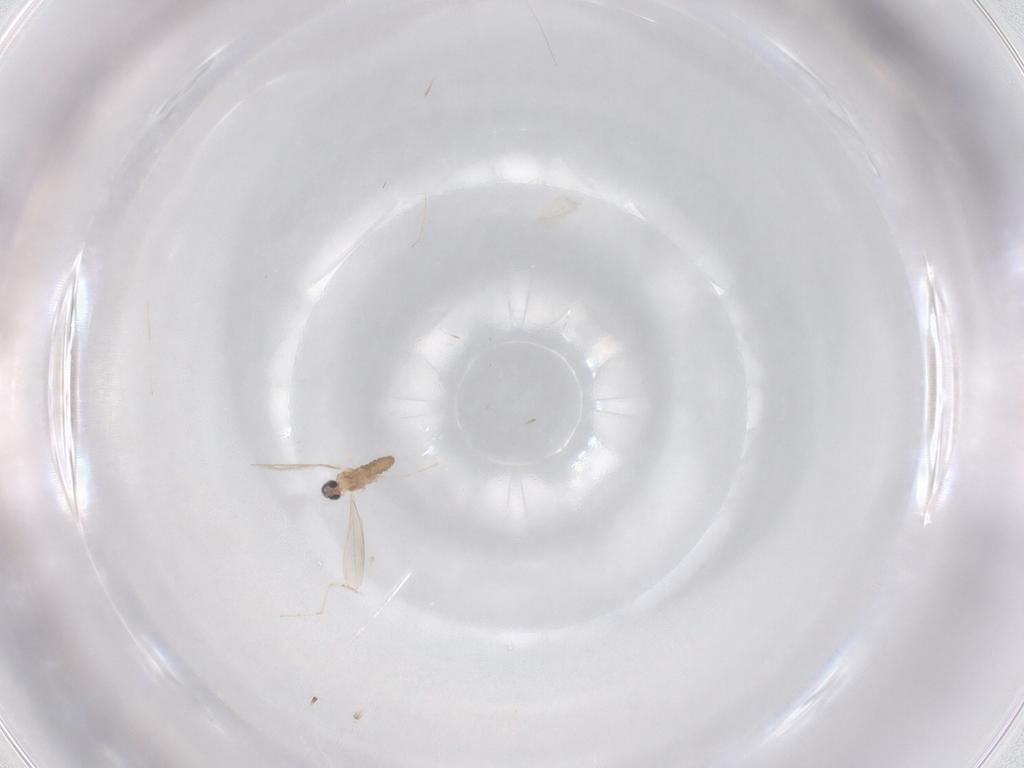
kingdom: Animalia
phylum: Arthropoda
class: Insecta
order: Diptera
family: Cecidomyiidae
